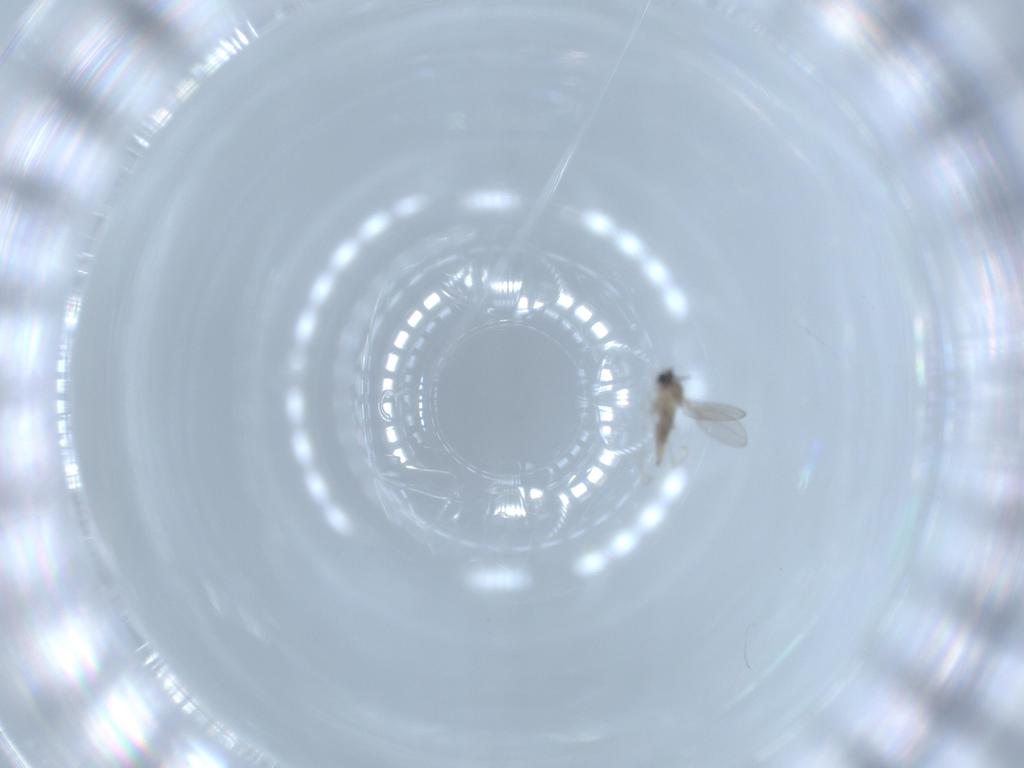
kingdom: Animalia
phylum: Arthropoda
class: Insecta
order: Diptera
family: Cecidomyiidae
